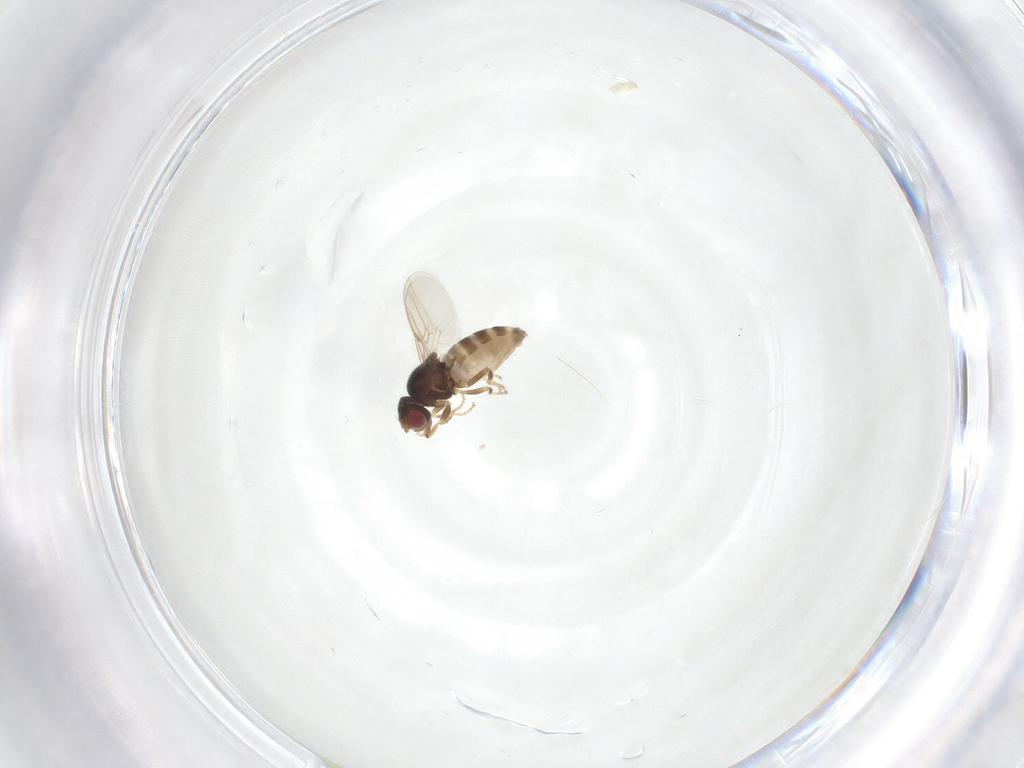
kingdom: Animalia
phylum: Arthropoda
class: Insecta
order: Diptera
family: Chloropidae
